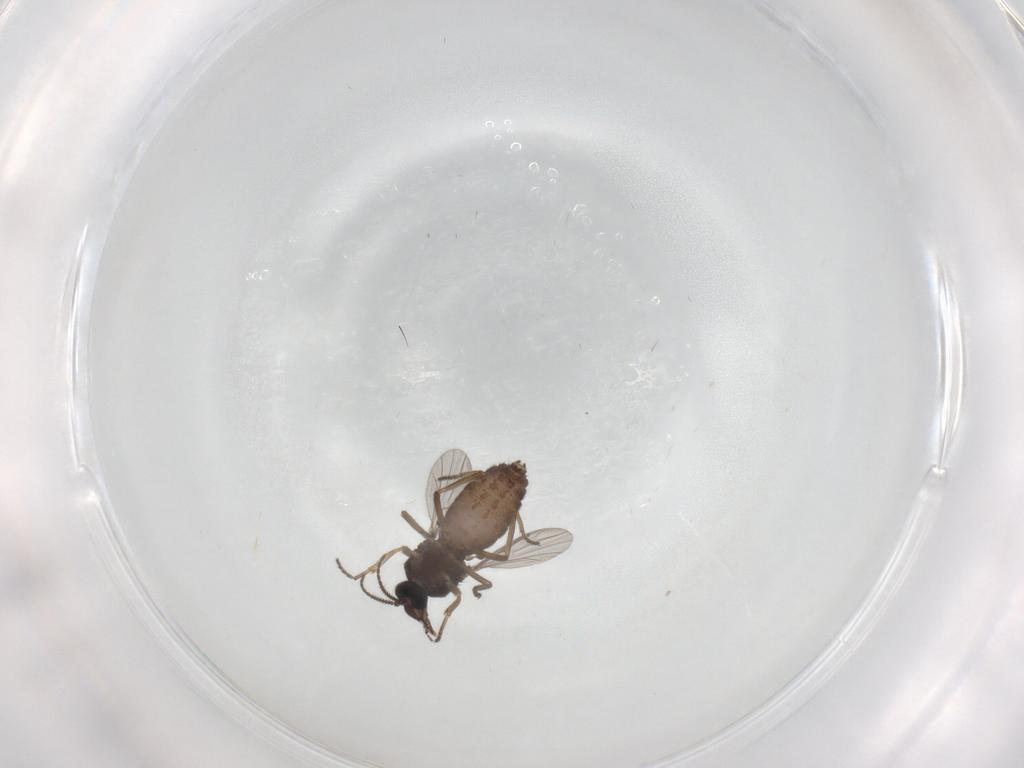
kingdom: Animalia
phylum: Arthropoda
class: Insecta
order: Diptera
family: Ceratopogonidae
